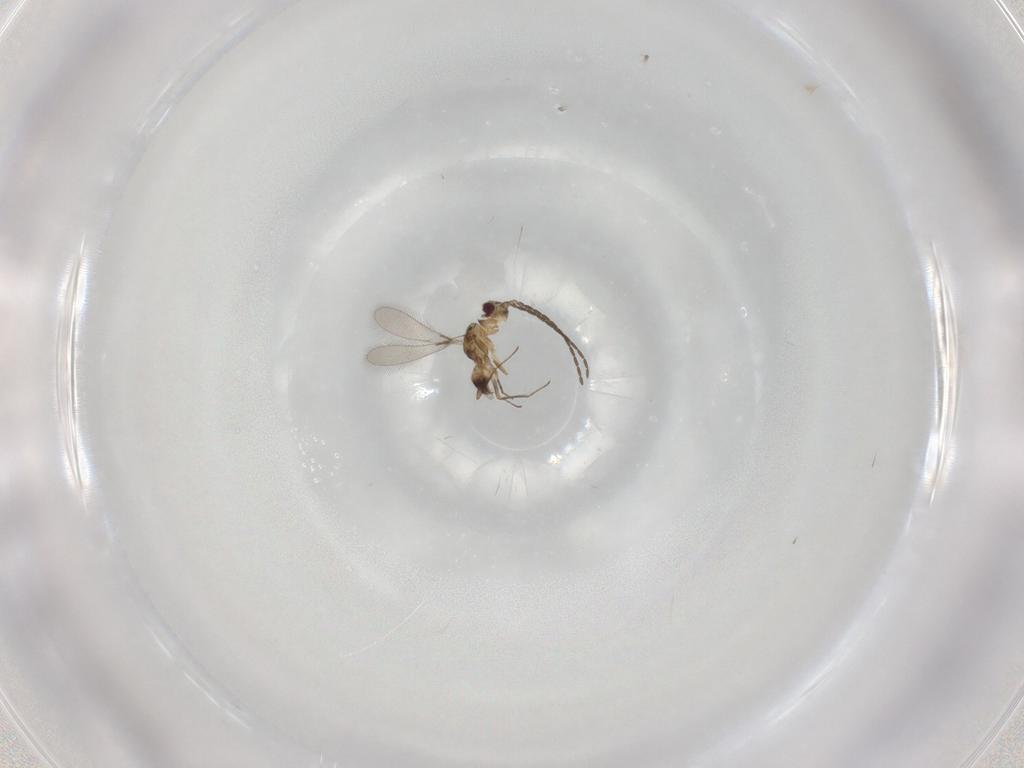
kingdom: Animalia
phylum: Arthropoda
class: Insecta
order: Hymenoptera
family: Mymaridae
